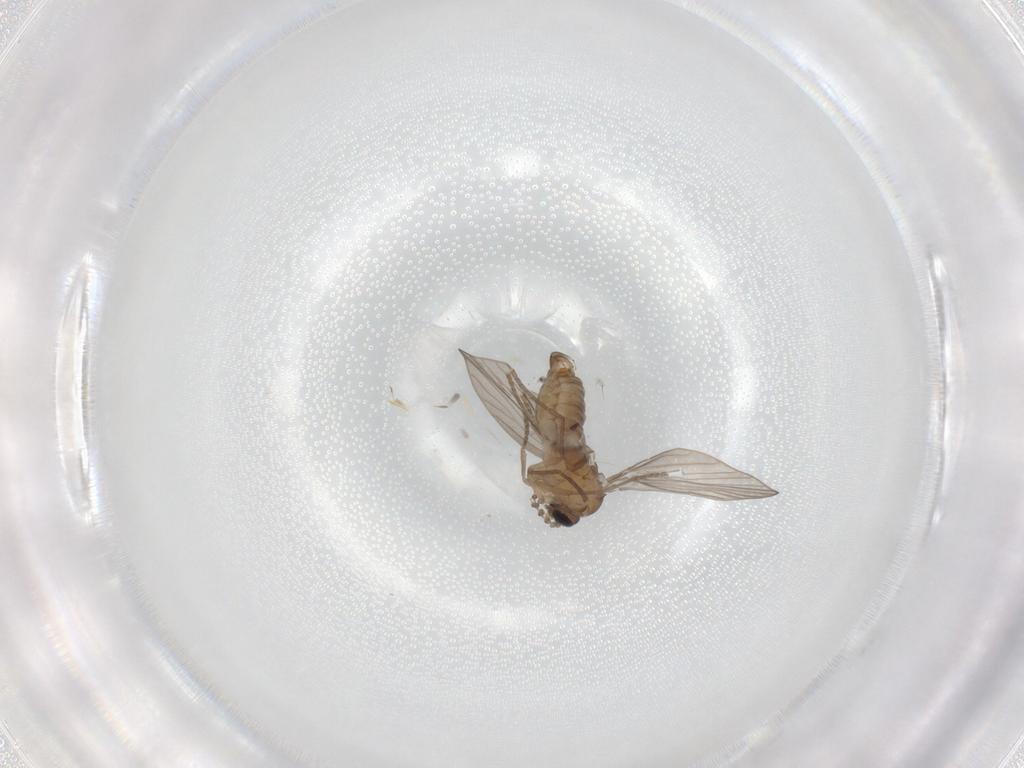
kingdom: Animalia
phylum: Arthropoda
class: Insecta
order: Diptera
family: Psychodidae
